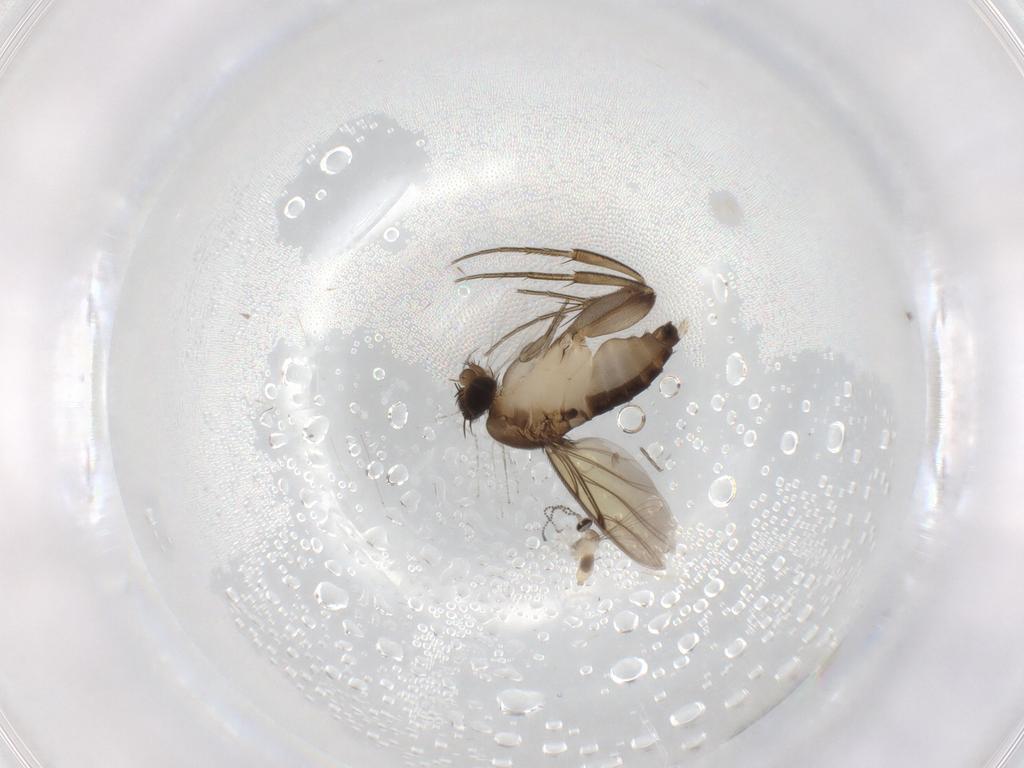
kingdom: Animalia
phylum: Arthropoda
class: Insecta
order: Diptera
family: Cecidomyiidae
